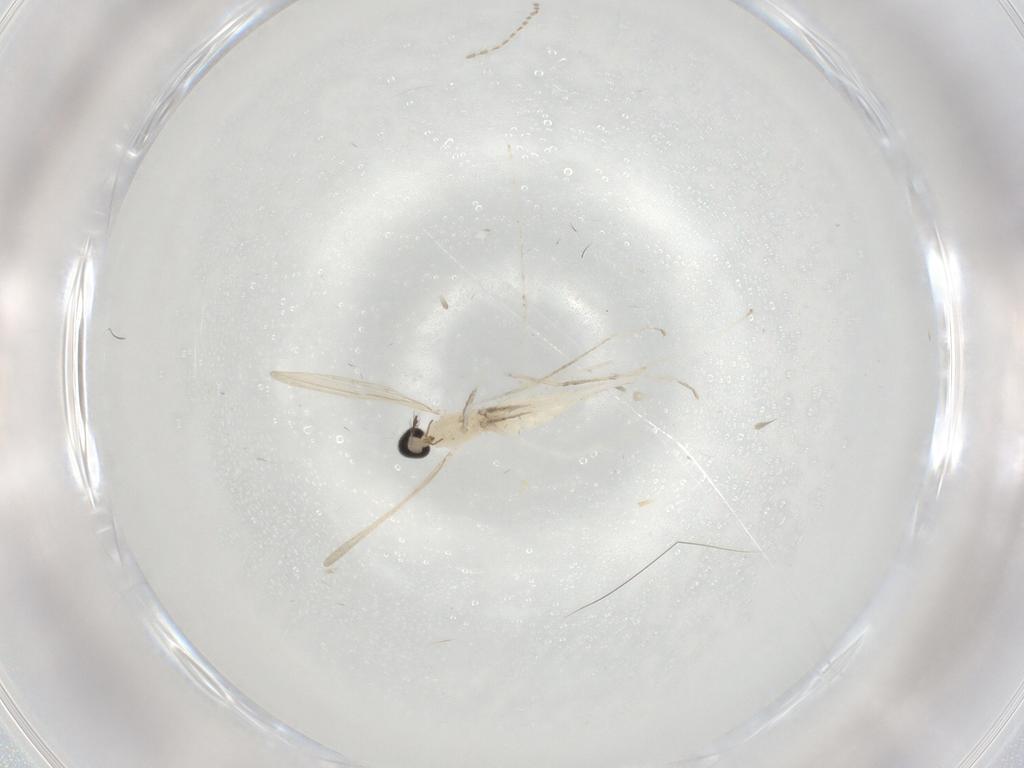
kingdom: Animalia
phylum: Arthropoda
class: Insecta
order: Diptera
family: Cecidomyiidae
